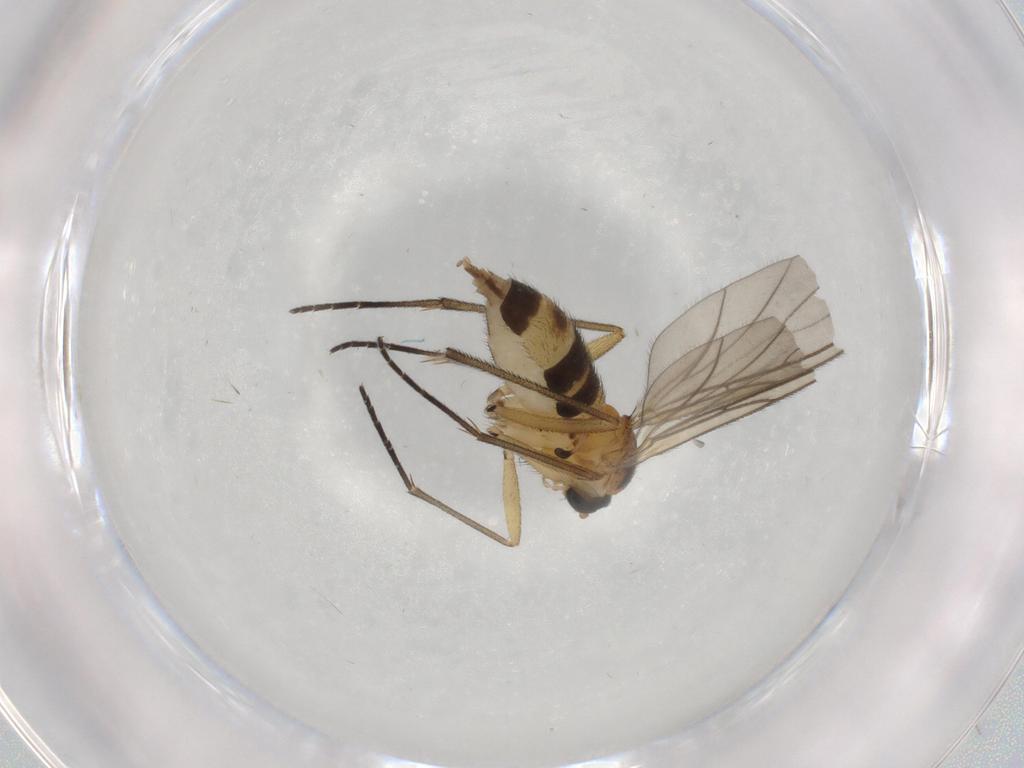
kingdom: Animalia
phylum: Arthropoda
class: Insecta
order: Diptera
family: Sciaridae
